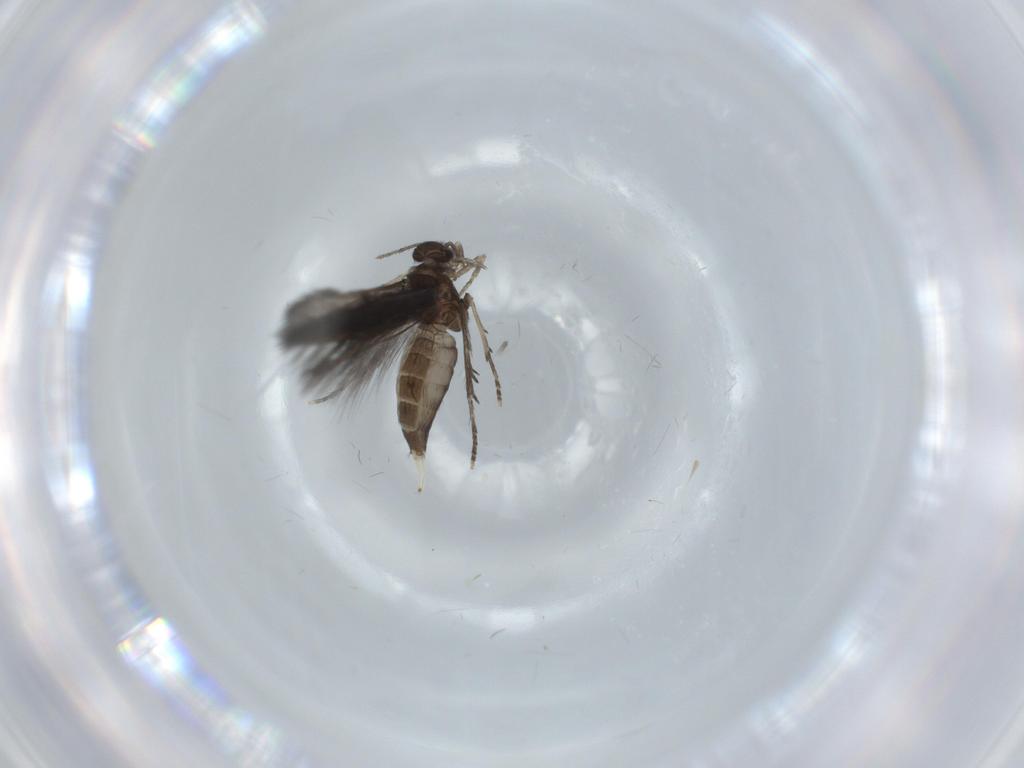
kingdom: Animalia
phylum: Arthropoda
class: Insecta
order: Trichoptera
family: Hydroptilidae
